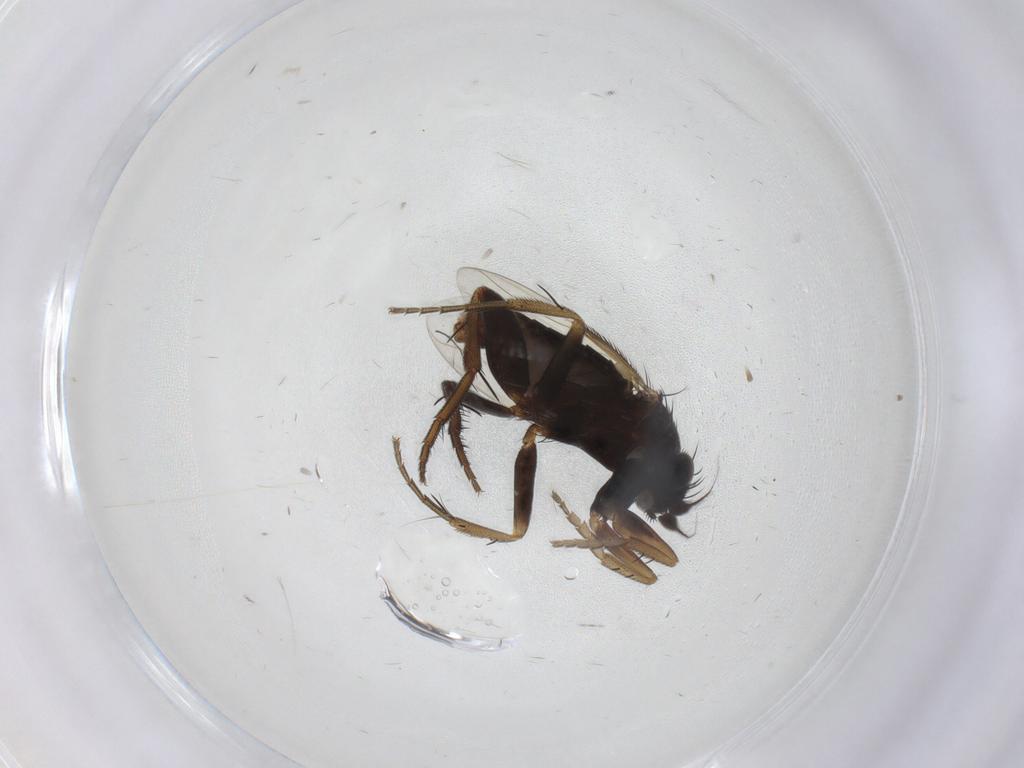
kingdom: Animalia
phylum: Arthropoda
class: Insecta
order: Diptera
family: Phoridae
